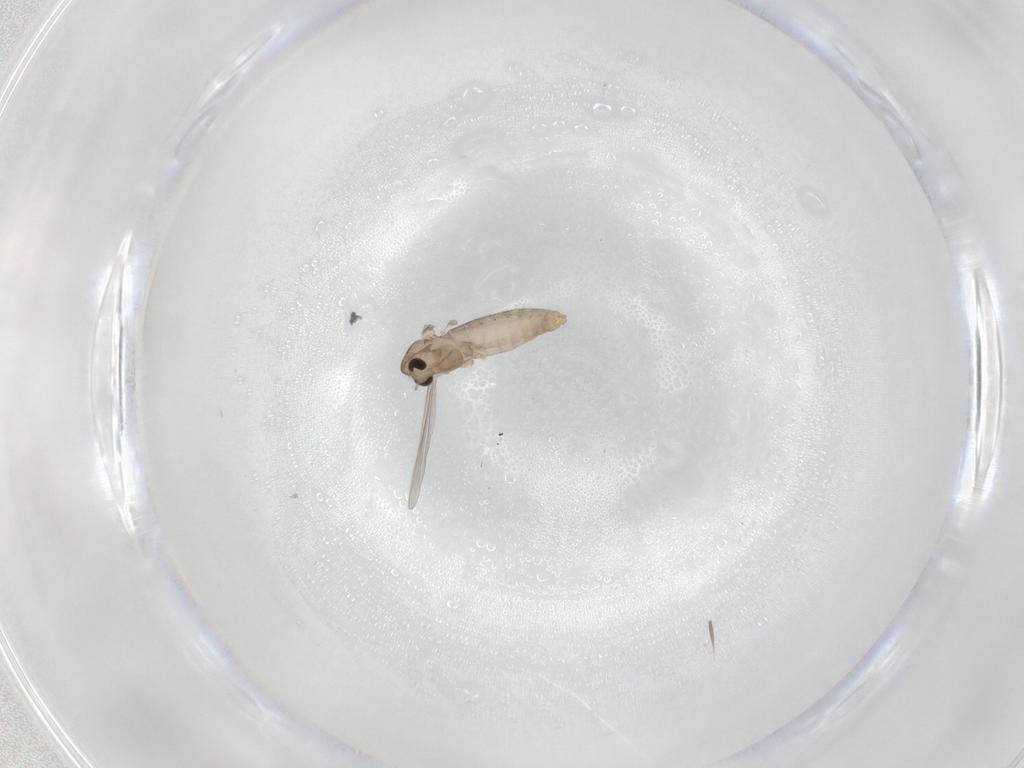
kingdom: Animalia
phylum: Arthropoda
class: Insecta
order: Diptera
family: Chironomidae
